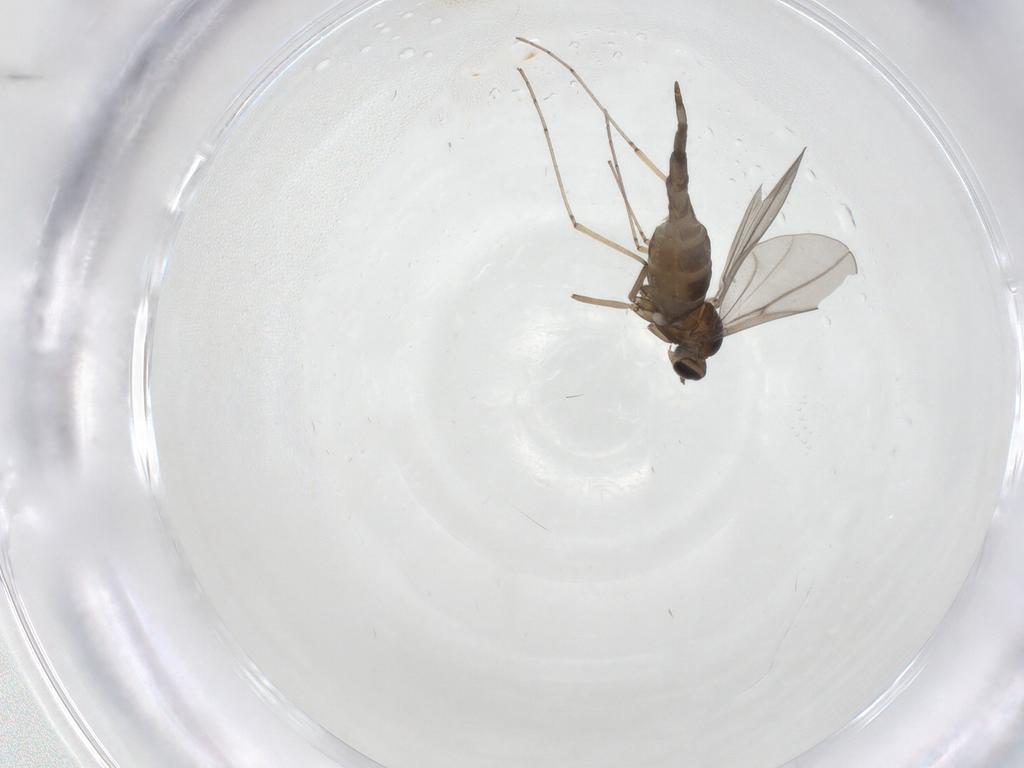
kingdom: Animalia
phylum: Arthropoda
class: Insecta
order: Diptera
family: Cecidomyiidae
